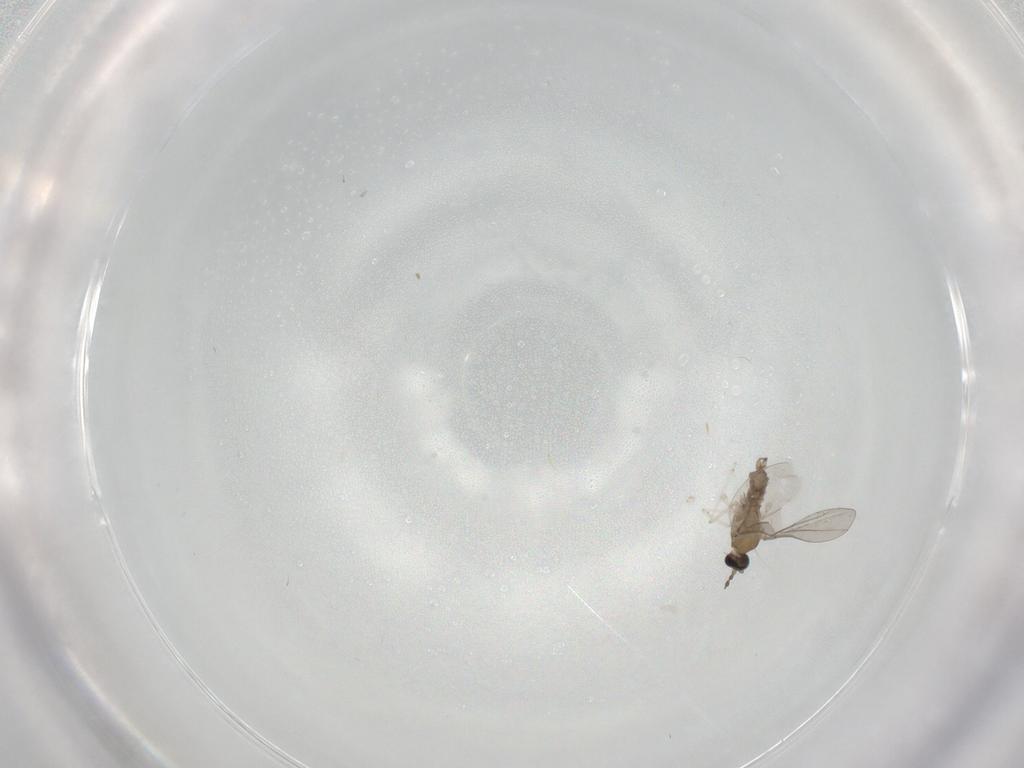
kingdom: Animalia
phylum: Arthropoda
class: Insecta
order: Diptera
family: Cecidomyiidae
